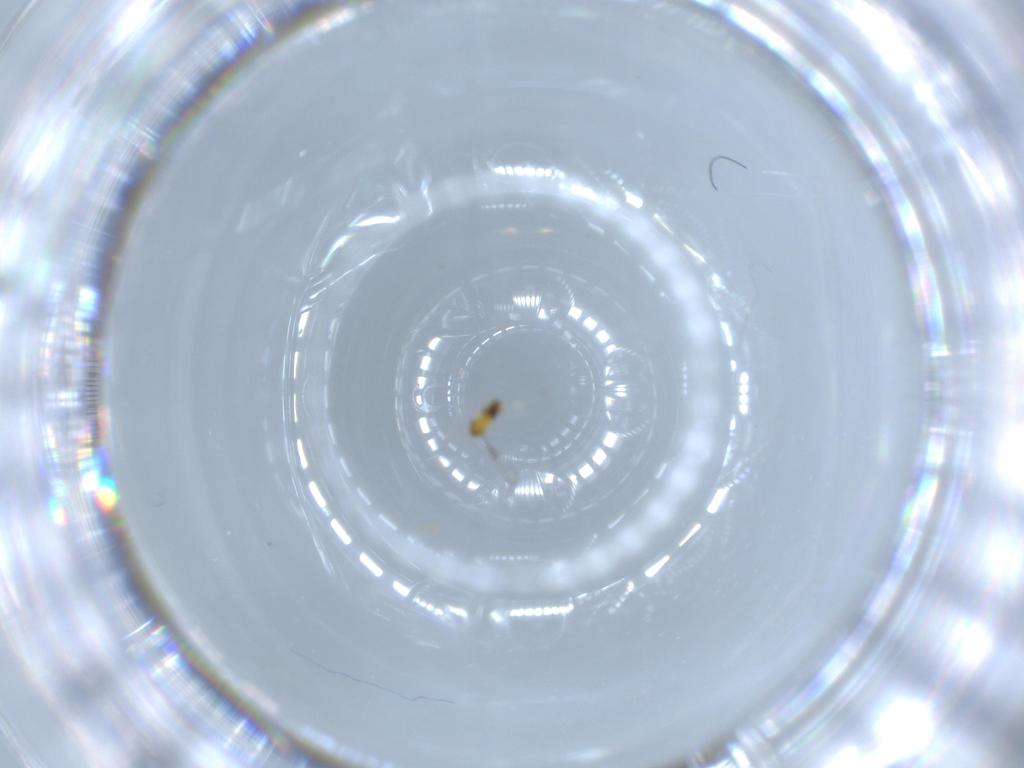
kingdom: Animalia
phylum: Arthropoda
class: Insecta
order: Hymenoptera
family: Trichogrammatidae
